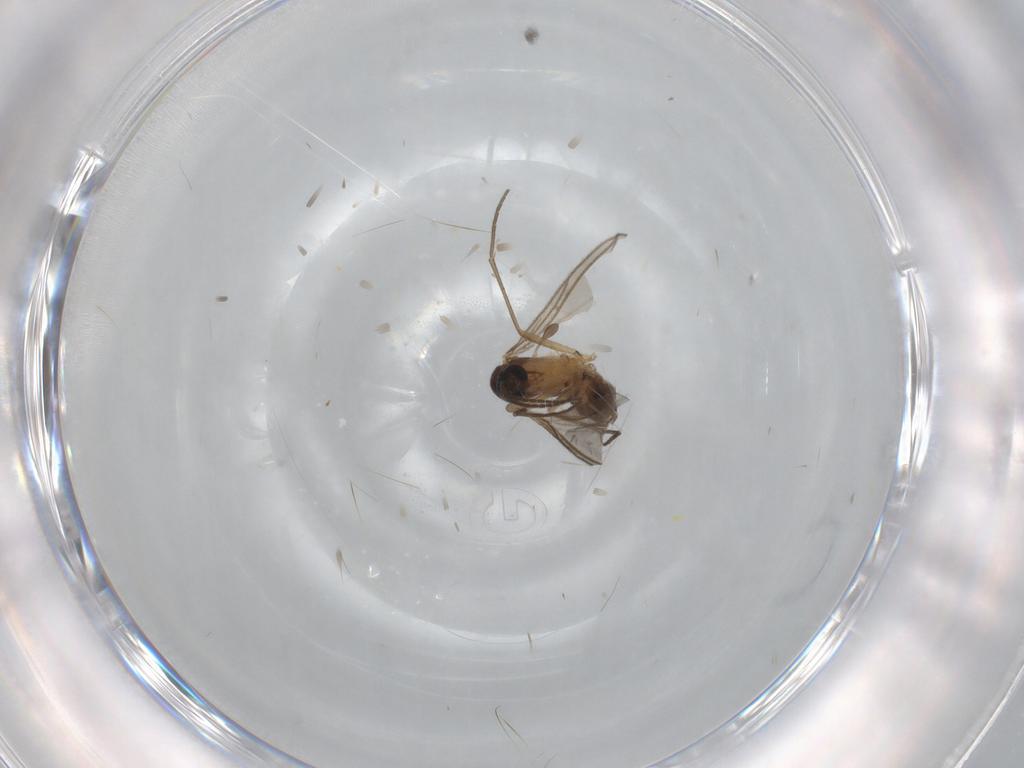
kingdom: Animalia
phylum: Arthropoda
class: Insecta
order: Diptera
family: Sciaridae
